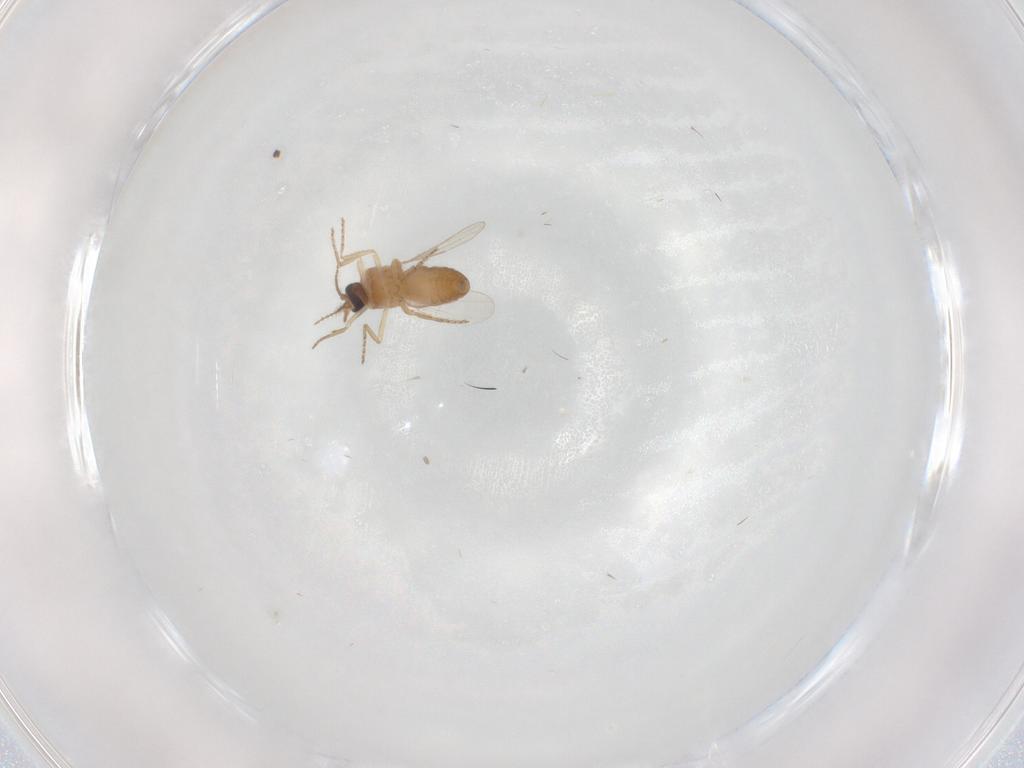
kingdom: Animalia
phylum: Arthropoda
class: Insecta
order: Diptera
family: Ceratopogonidae
